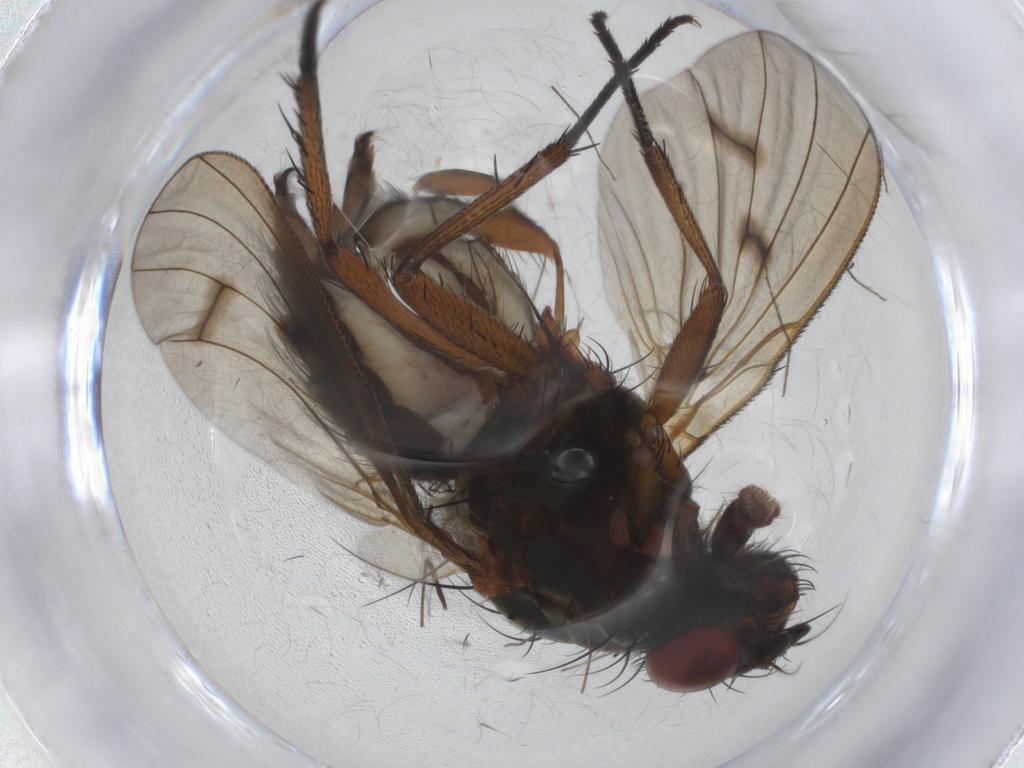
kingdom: Animalia
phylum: Arthropoda
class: Insecta
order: Diptera
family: Anthomyiidae
